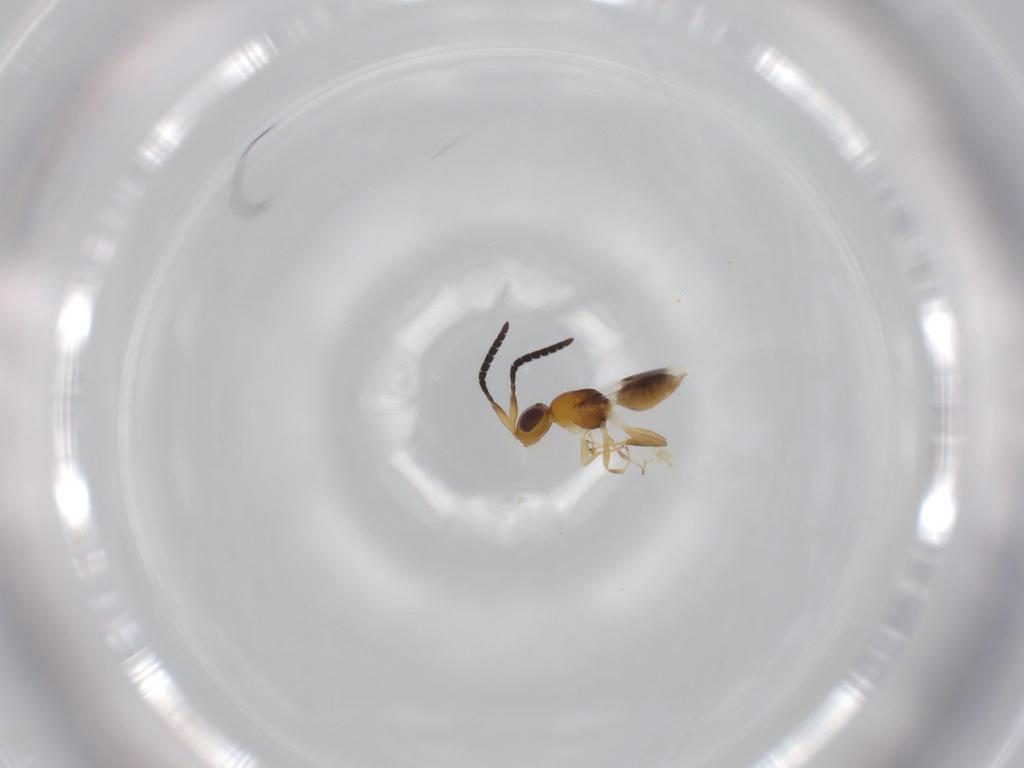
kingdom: Animalia
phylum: Arthropoda
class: Insecta
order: Hymenoptera
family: Megaspilidae
